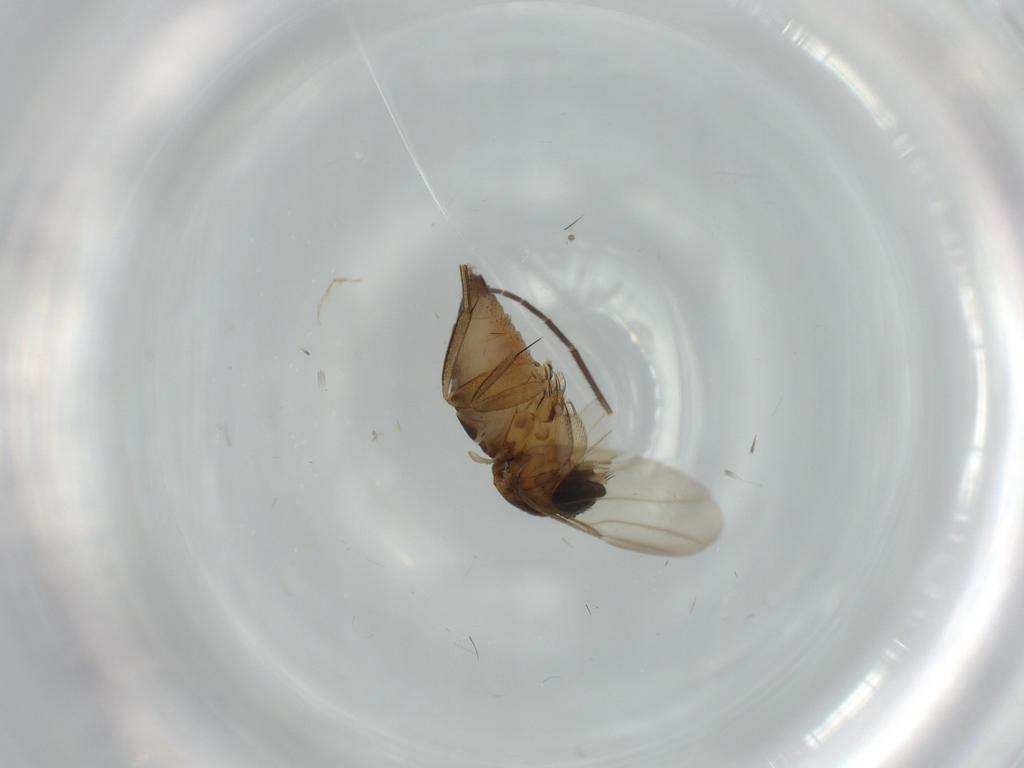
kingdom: Animalia
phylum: Arthropoda
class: Insecta
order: Diptera
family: Phoridae
